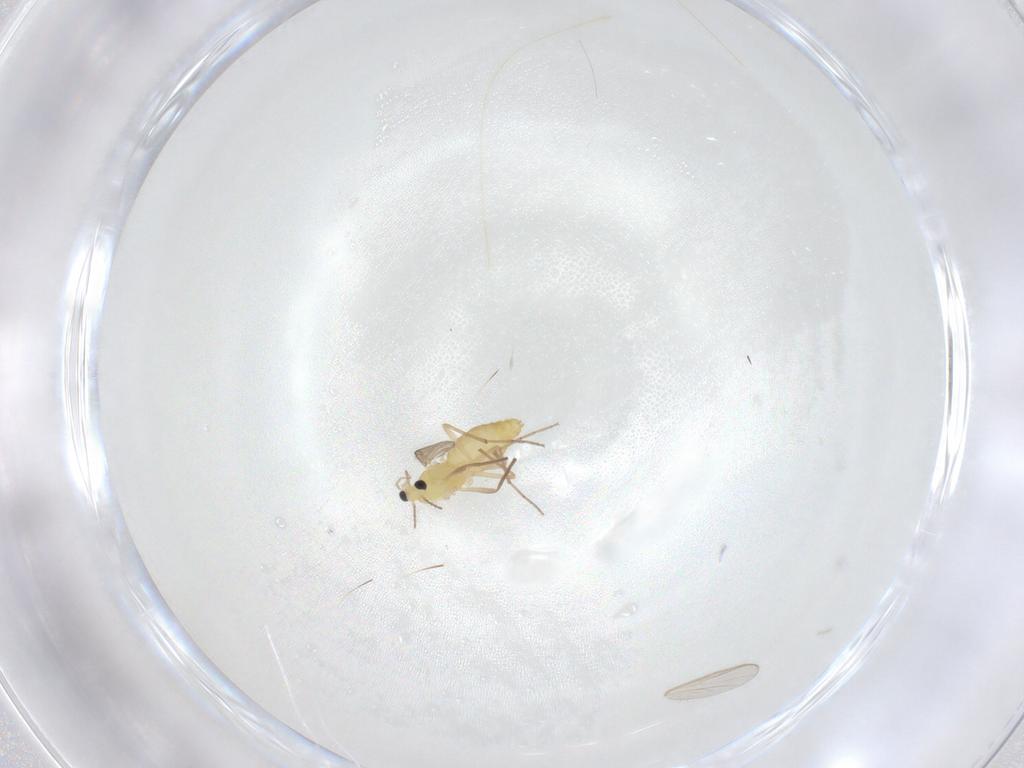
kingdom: Animalia
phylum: Arthropoda
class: Insecta
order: Diptera
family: Chironomidae
